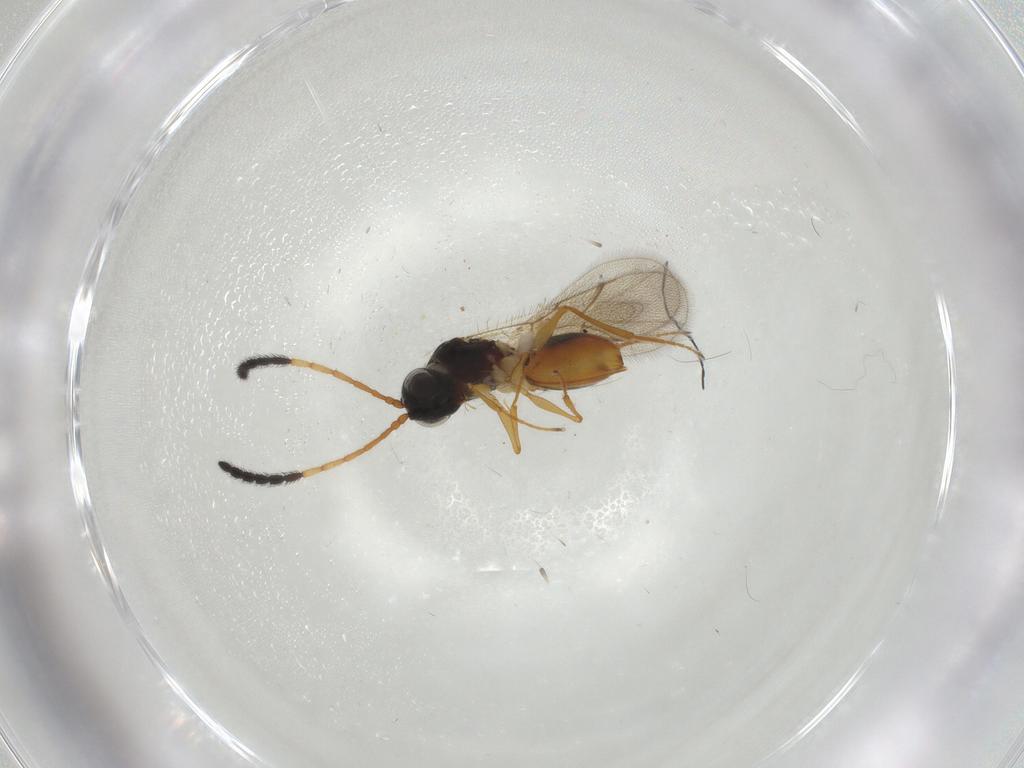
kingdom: Animalia
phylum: Arthropoda
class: Insecta
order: Hymenoptera
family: Figitidae
